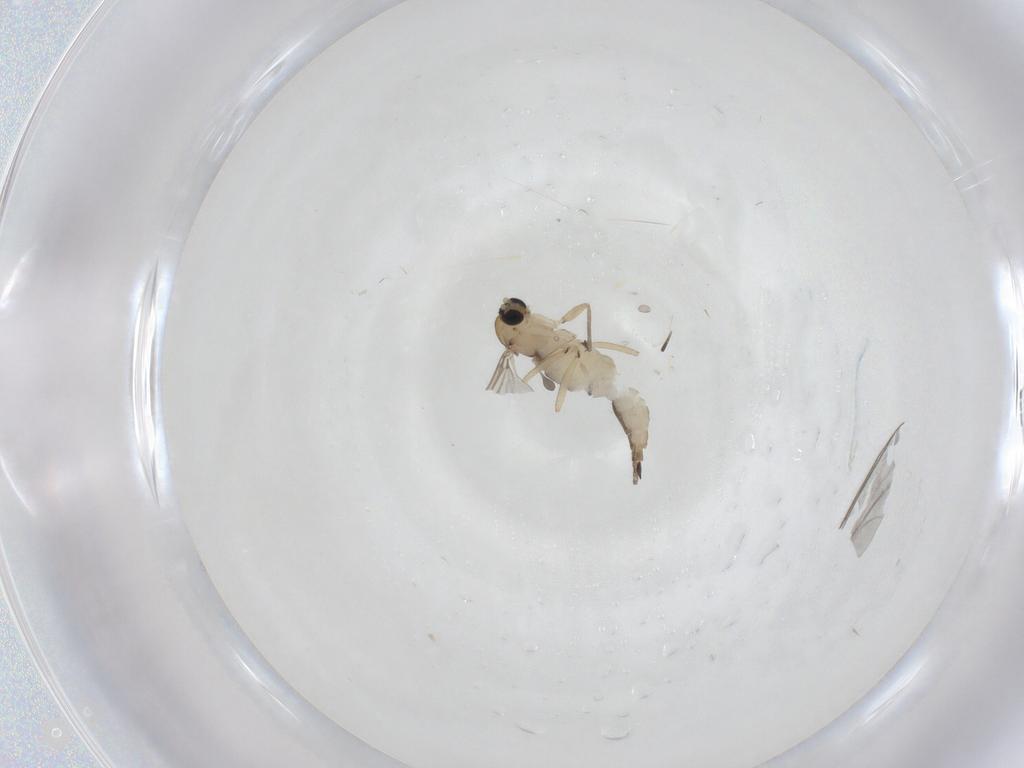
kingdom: Animalia
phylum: Arthropoda
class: Insecta
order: Diptera
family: Sciaridae
